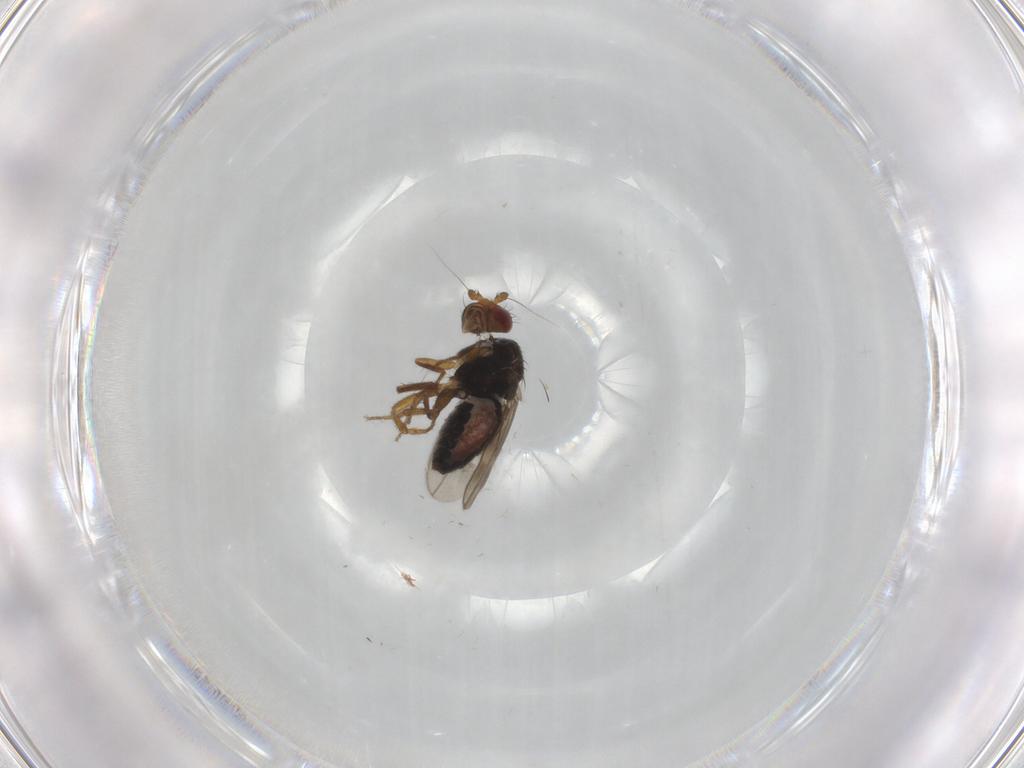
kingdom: Animalia
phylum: Arthropoda
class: Insecta
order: Diptera
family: Sphaeroceridae
